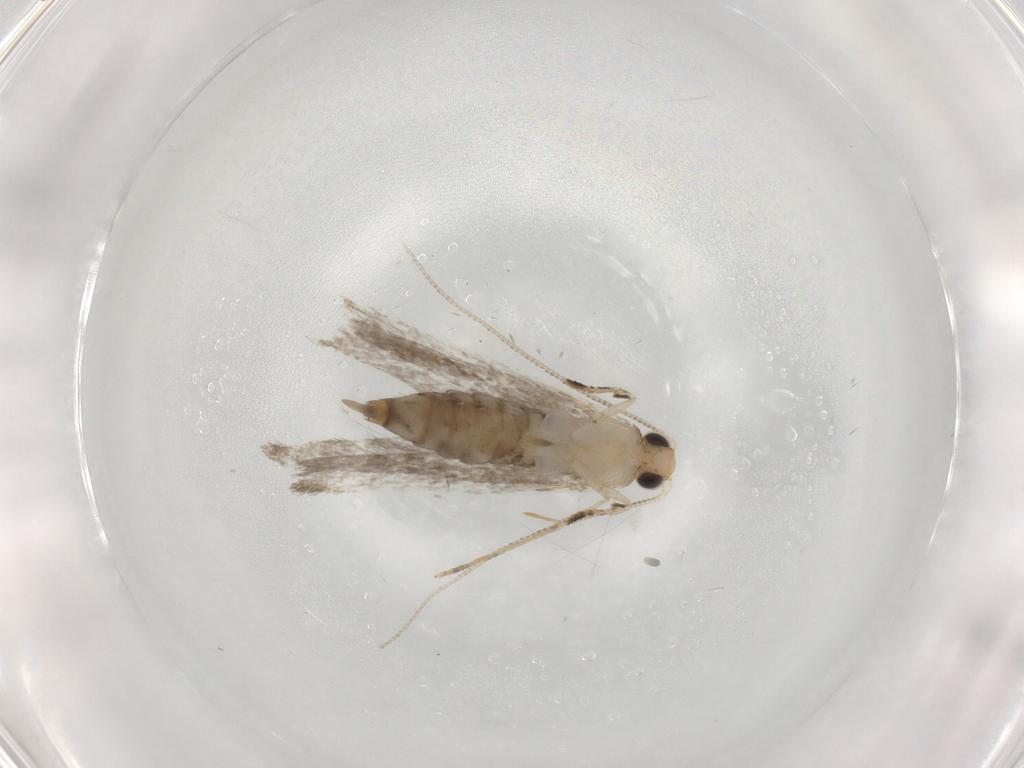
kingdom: Animalia
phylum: Arthropoda
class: Insecta
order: Lepidoptera
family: Tineidae
